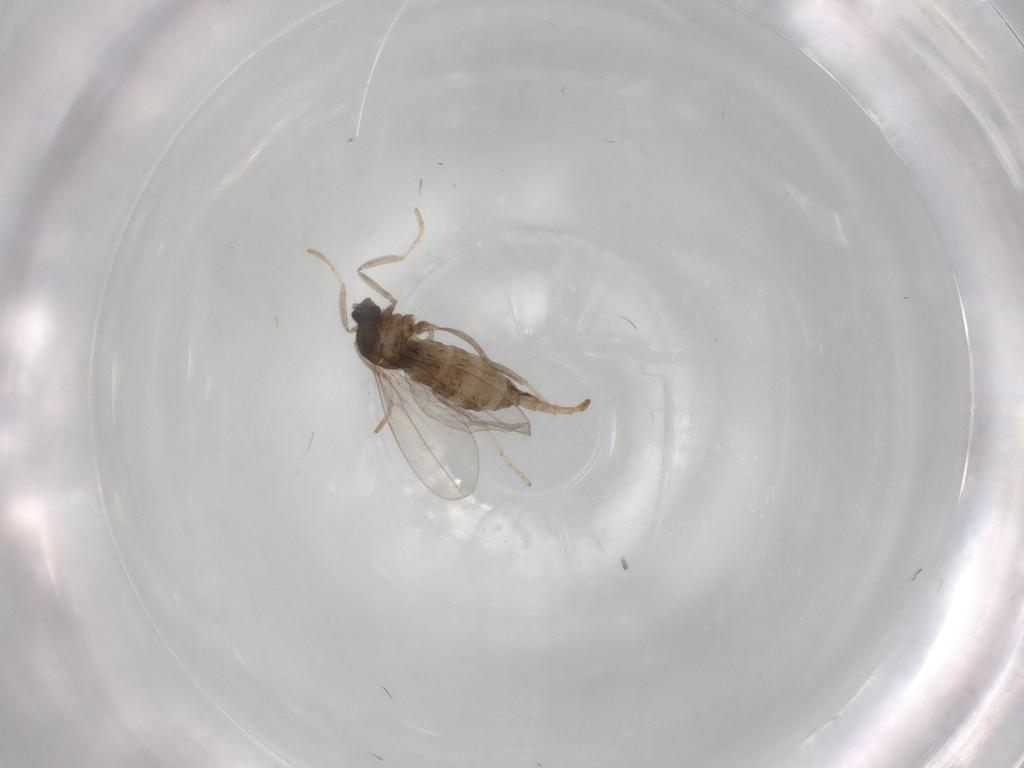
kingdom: Animalia
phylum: Arthropoda
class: Insecta
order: Diptera
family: Cecidomyiidae
